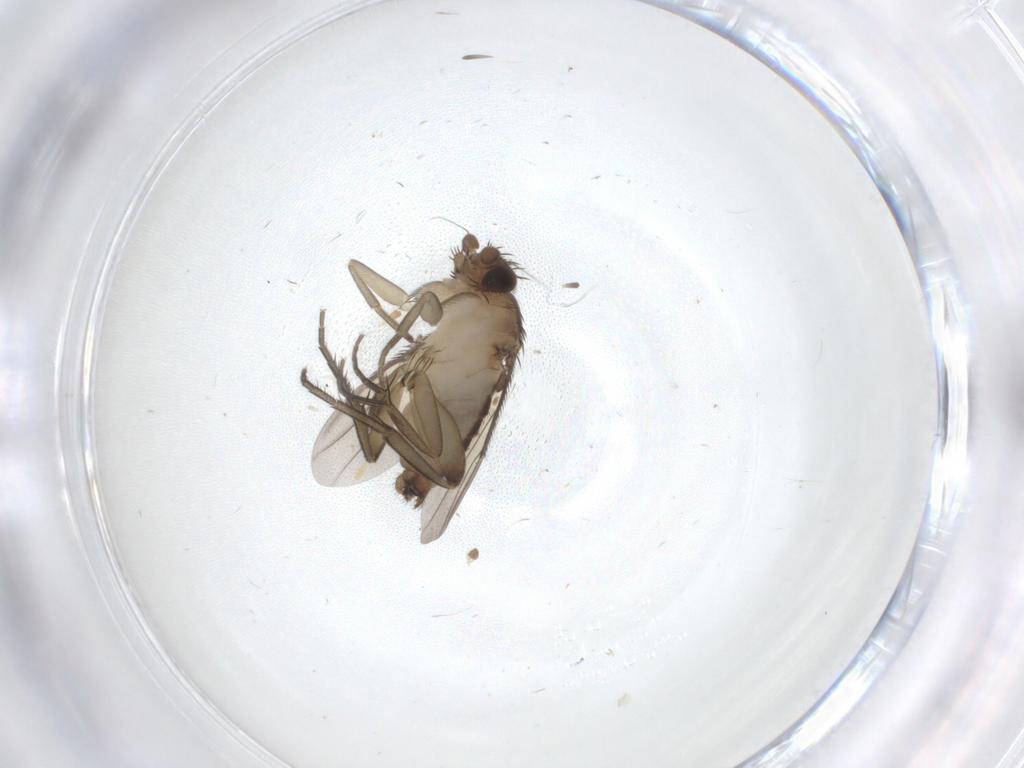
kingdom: Animalia
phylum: Arthropoda
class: Insecta
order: Diptera
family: Phoridae
